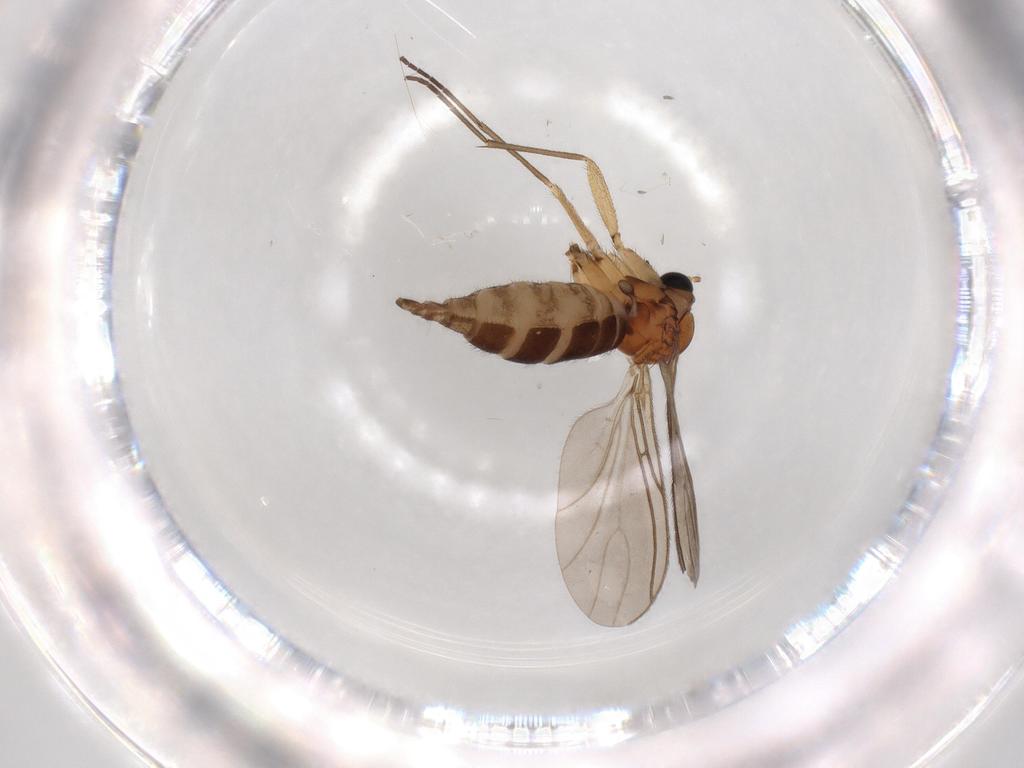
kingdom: Animalia
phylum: Arthropoda
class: Insecta
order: Diptera
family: Sciaridae
